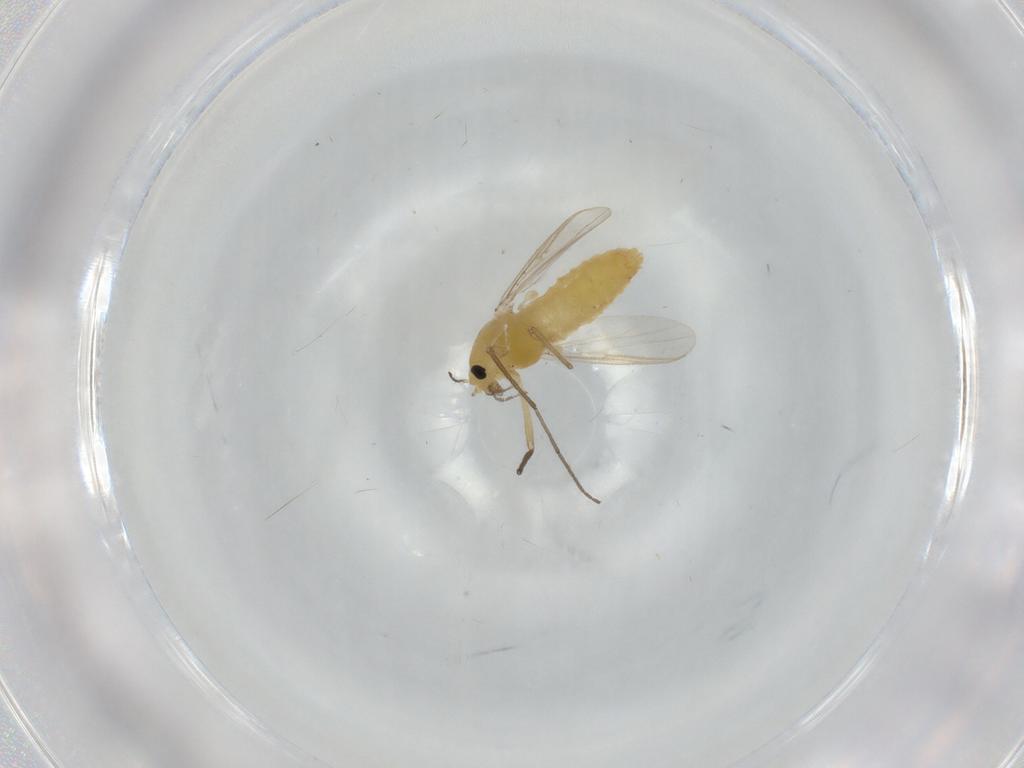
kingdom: Animalia
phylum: Arthropoda
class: Insecta
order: Diptera
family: Chironomidae
